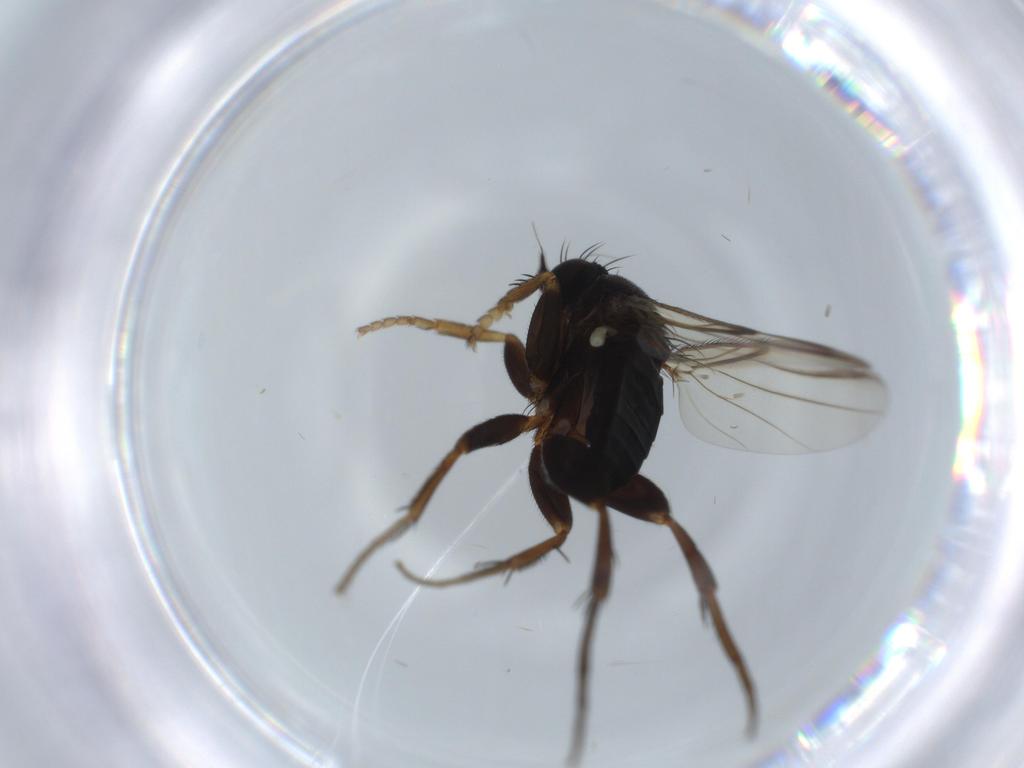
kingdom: Animalia
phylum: Arthropoda
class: Insecta
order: Diptera
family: Phoridae
